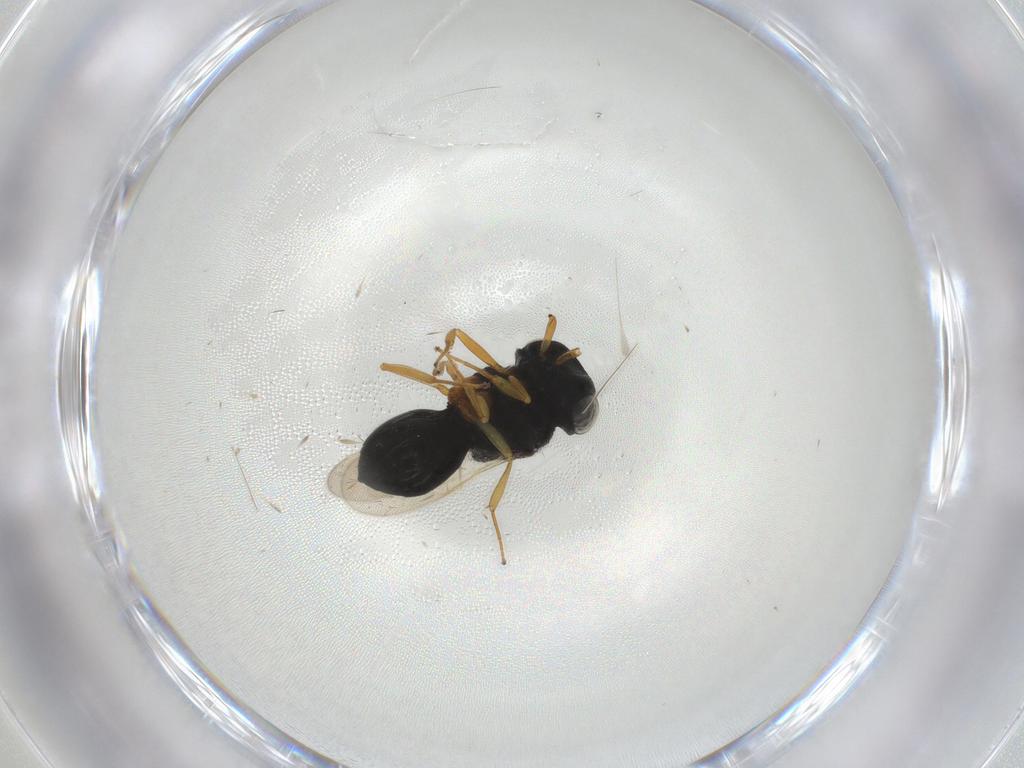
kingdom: Animalia
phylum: Arthropoda
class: Insecta
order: Hymenoptera
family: Scelionidae
